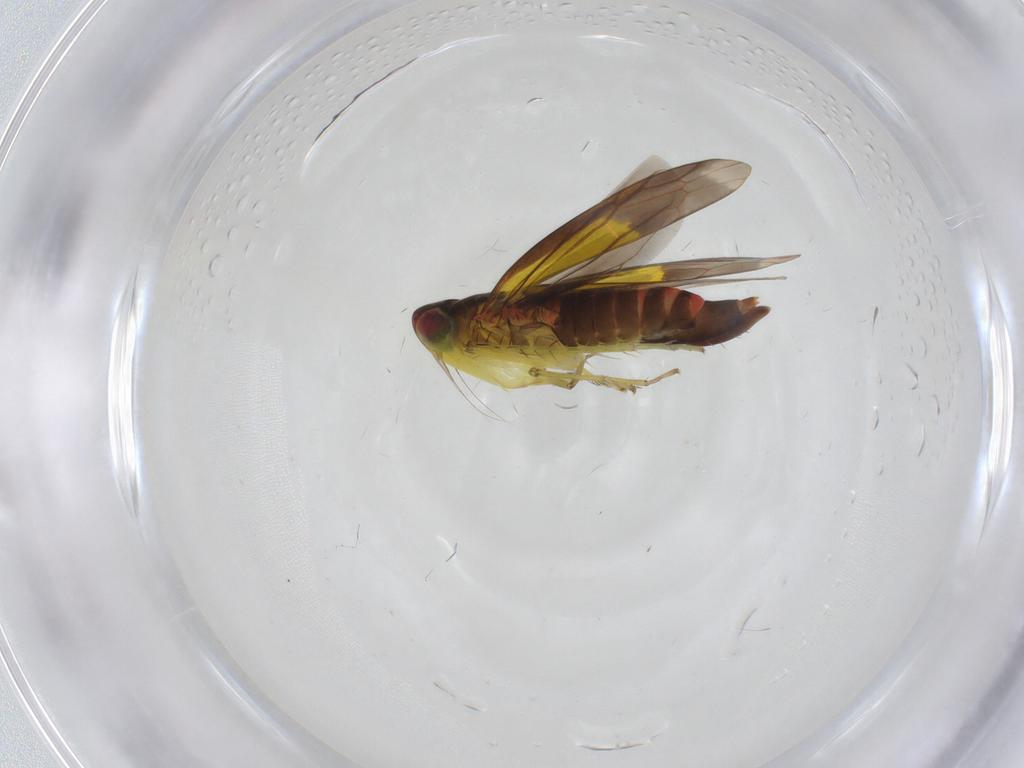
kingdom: Animalia
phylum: Arthropoda
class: Insecta
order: Hemiptera
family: Cicadellidae
